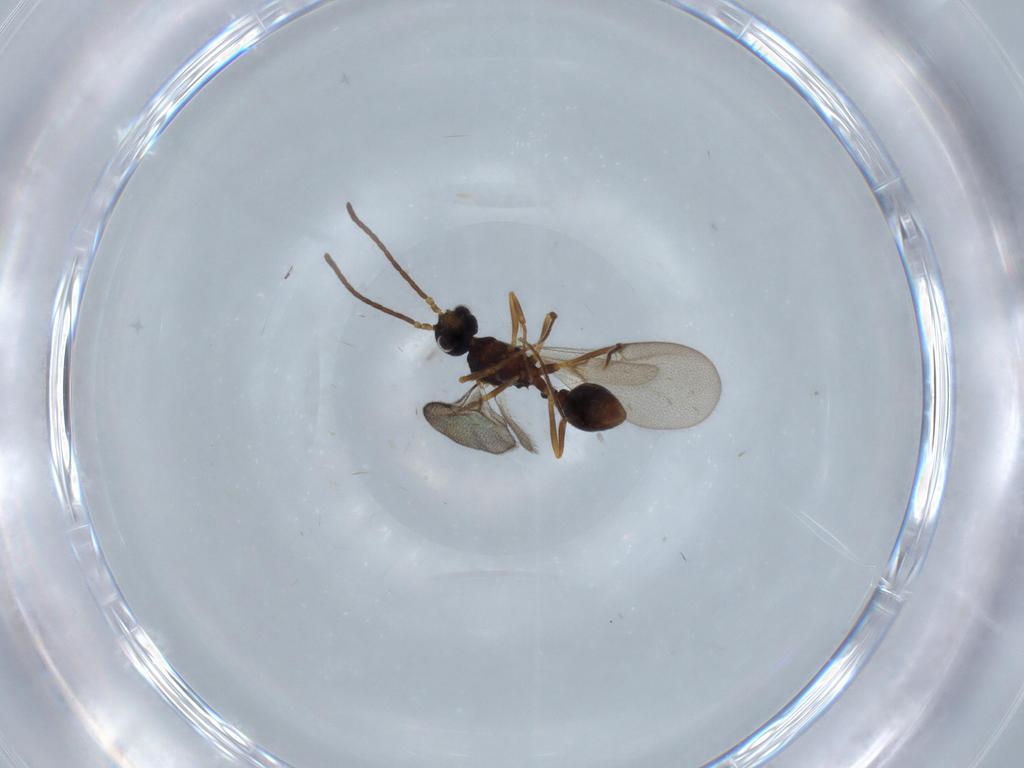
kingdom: Animalia
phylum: Arthropoda
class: Insecta
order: Hymenoptera
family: Formicidae
